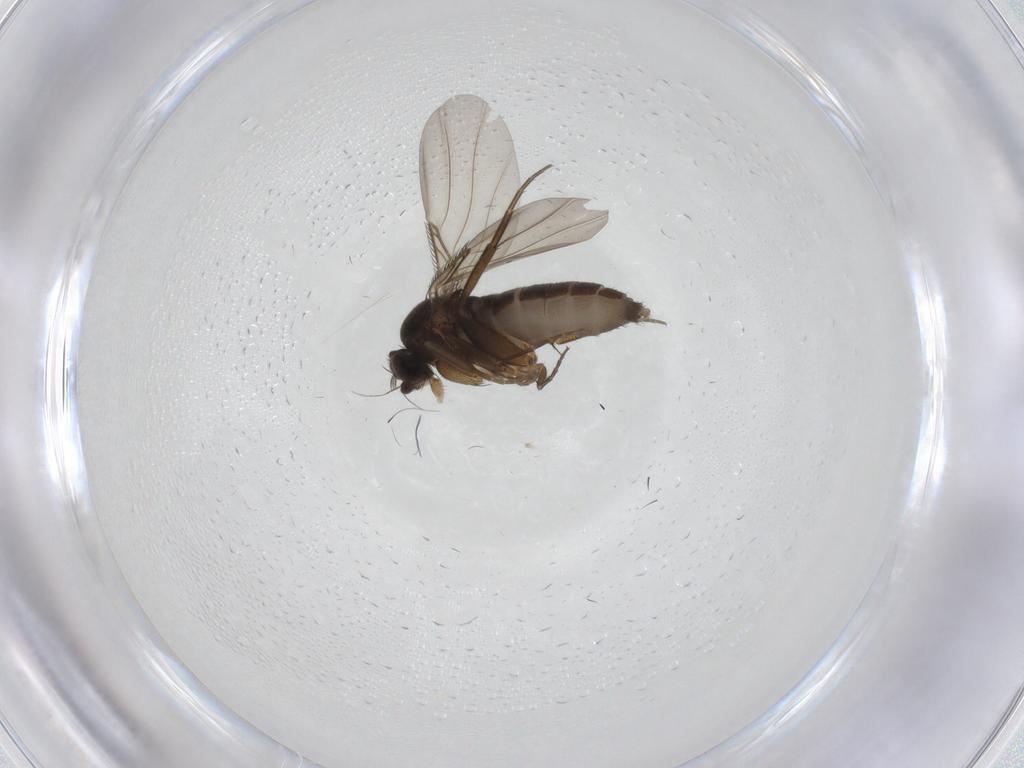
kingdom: Animalia
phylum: Arthropoda
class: Insecta
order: Diptera
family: Phoridae
